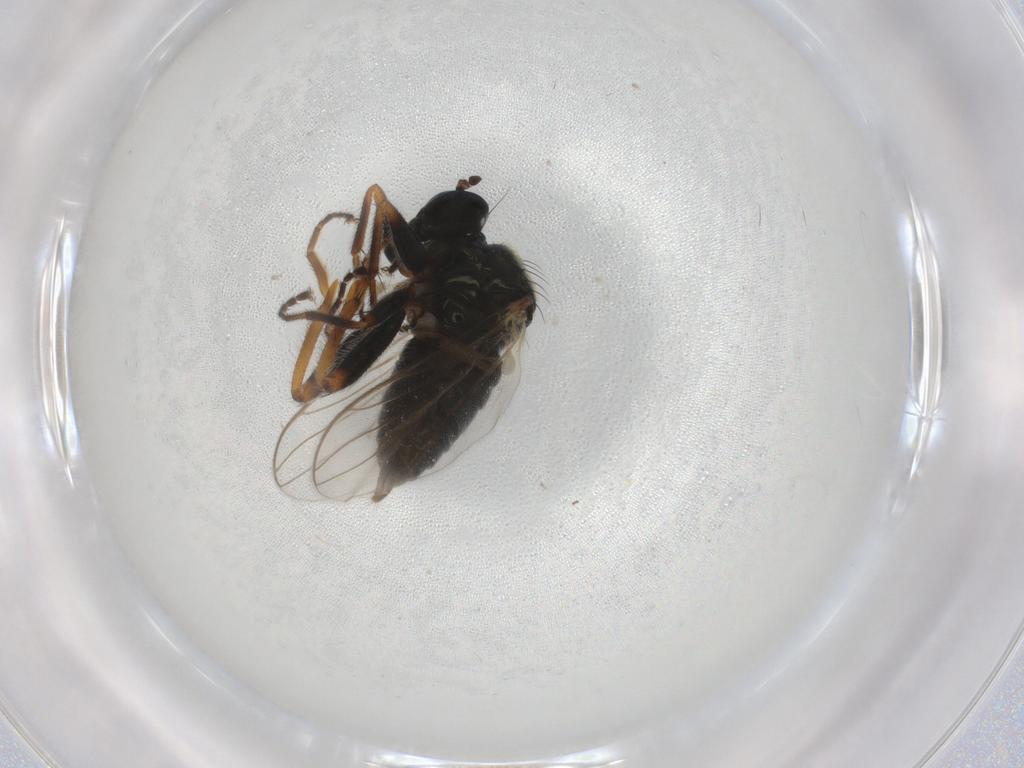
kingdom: Animalia
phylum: Arthropoda
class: Insecta
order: Diptera
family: Hybotidae
